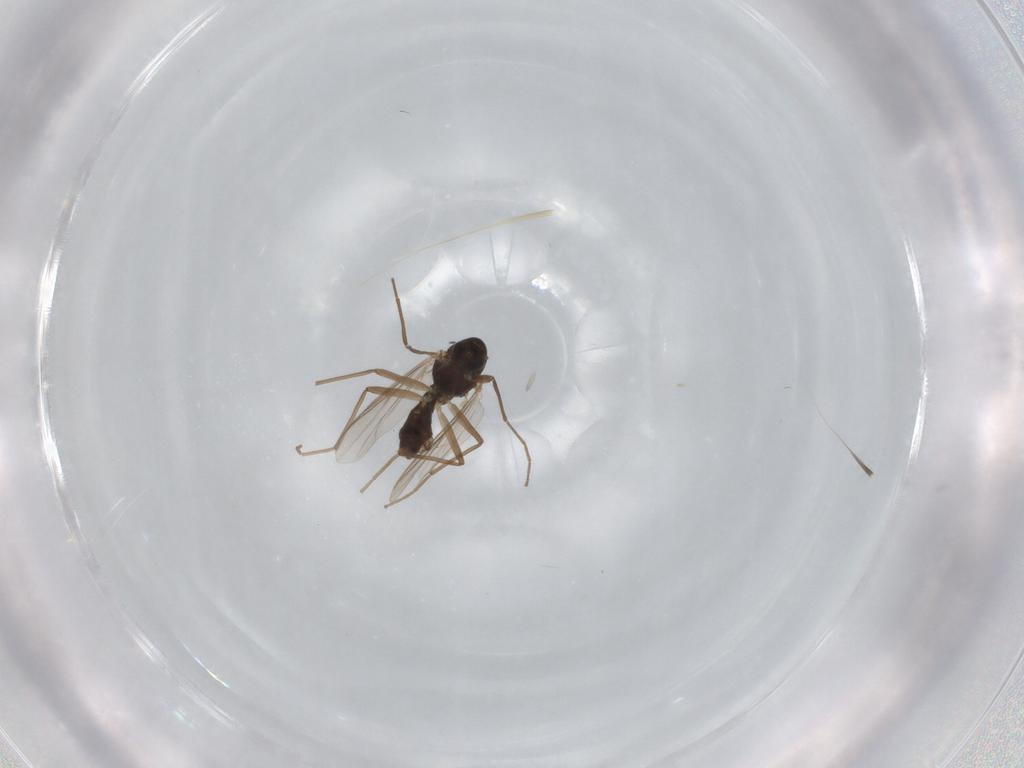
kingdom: Animalia
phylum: Arthropoda
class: Insecta
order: Diptera
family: Chironomidae
